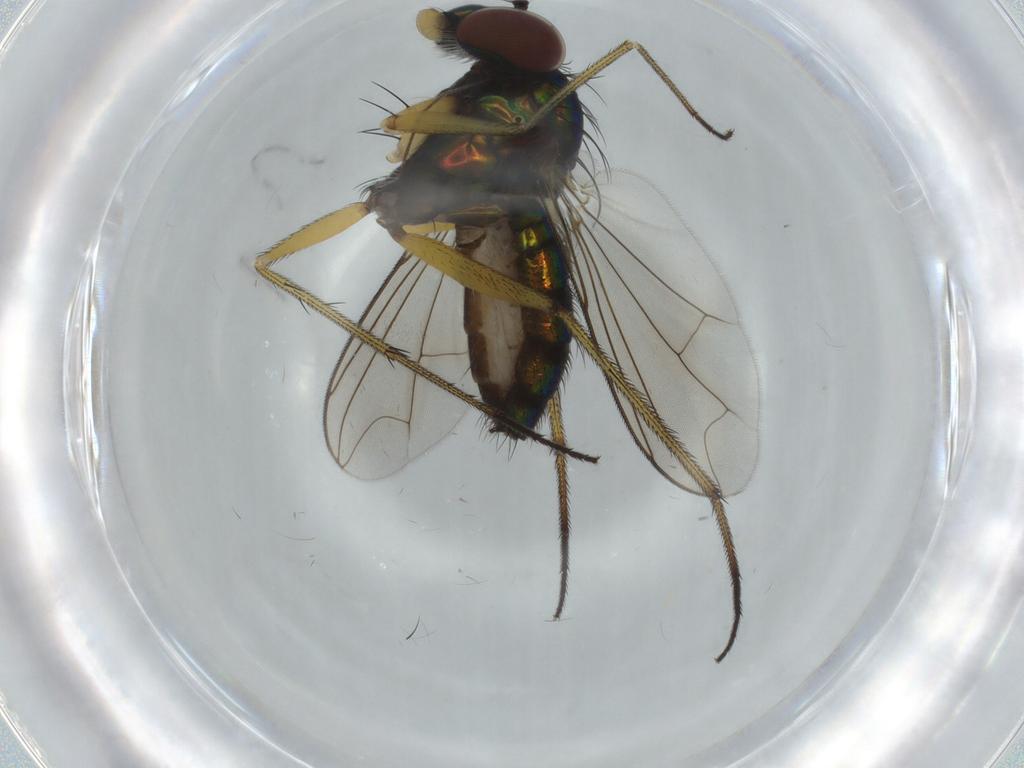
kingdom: Animalia
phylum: Arthropoda
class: Insecta
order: Diptera
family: Dolichopodidae
